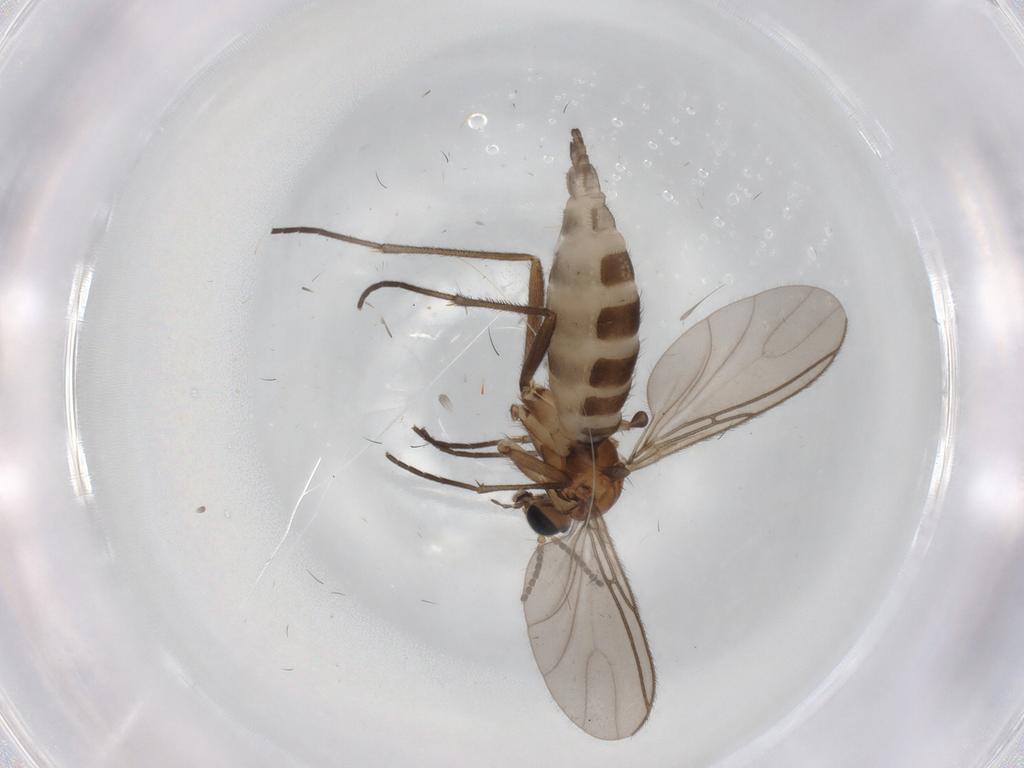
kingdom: Animalia
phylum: Arthropoda
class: Insecta
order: Diptera
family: Sciaridae
